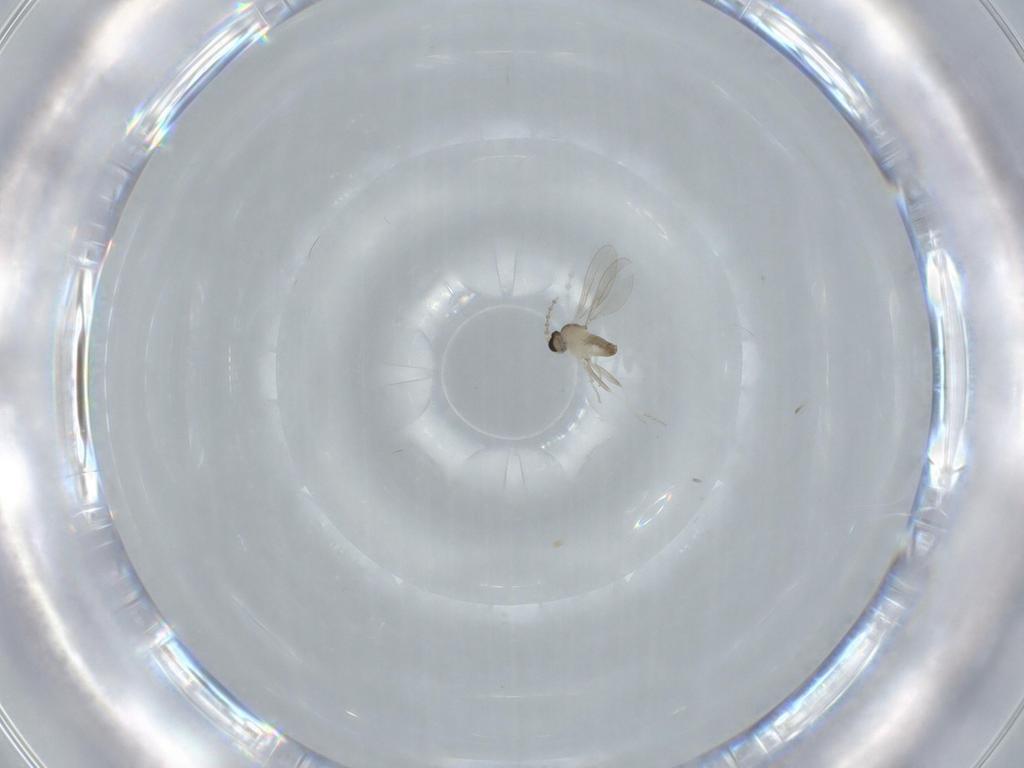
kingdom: Animalia
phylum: Arthropoda
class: Insecta
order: Diptera
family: Cecidomyiidae
